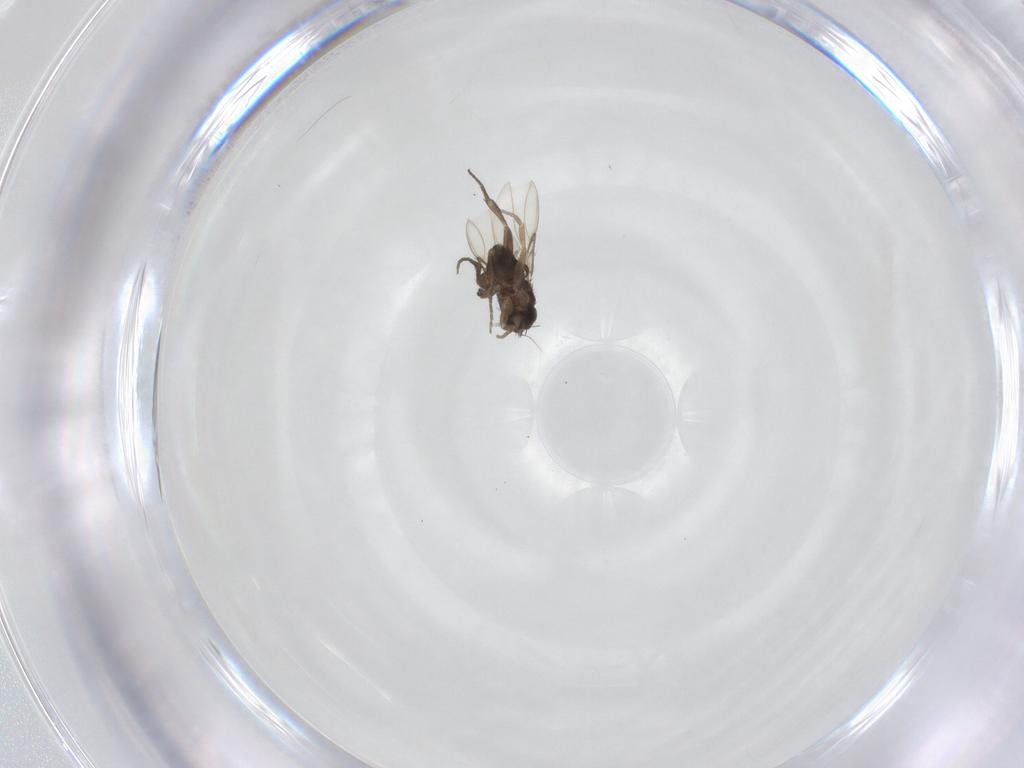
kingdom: Animalia
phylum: Arthropoda
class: Insecta
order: Diptera
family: Phoridae
